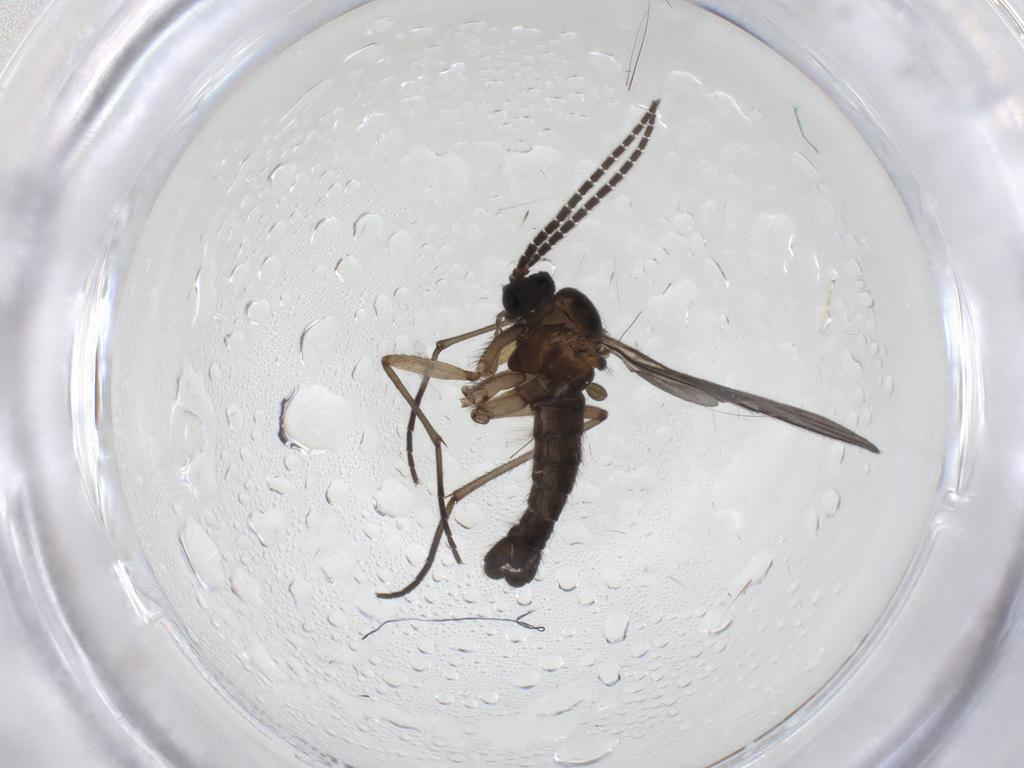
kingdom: Animalia
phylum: Arthropoda
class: Insecta
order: Diptera
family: Sciaridae
